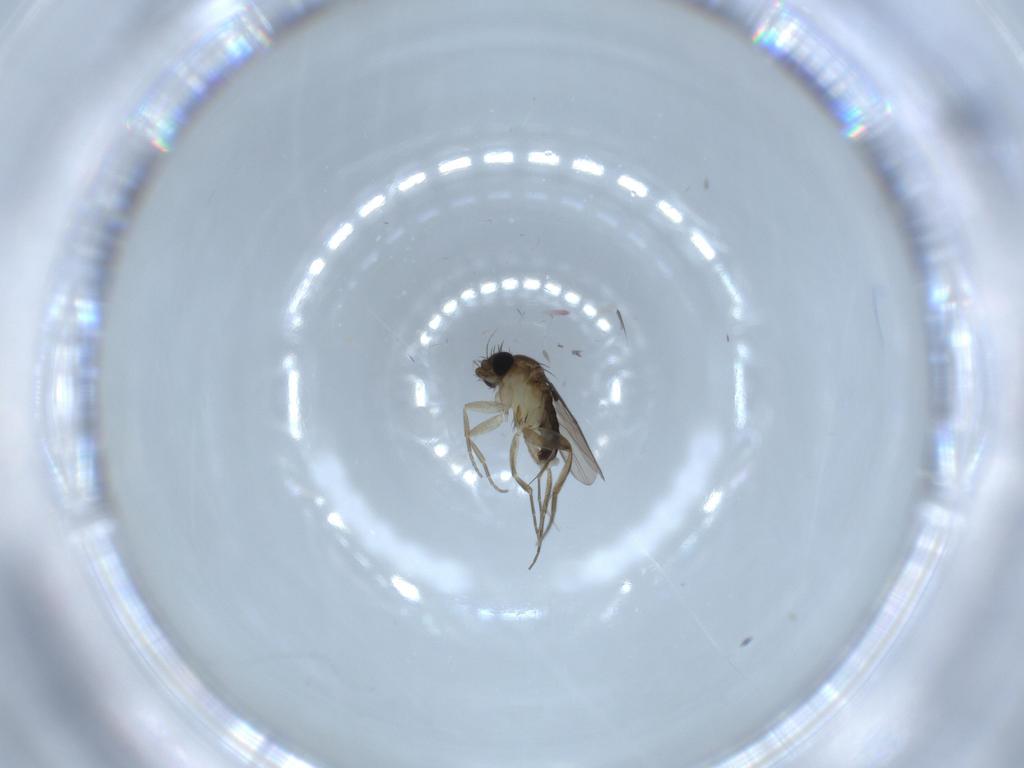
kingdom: Animalia
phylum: Arthropoda
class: Insecta
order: Diptera
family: Phoridae
